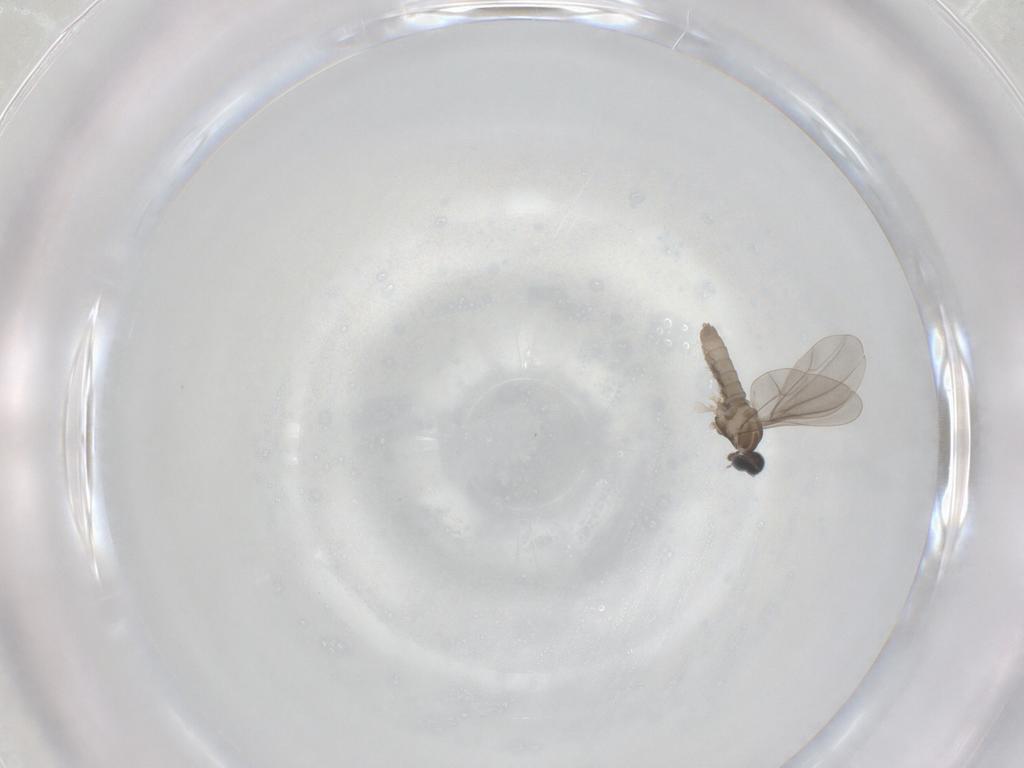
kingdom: Animalia
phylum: Arthropoda
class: Insecta
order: Diptera
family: Cecidomyiidae
